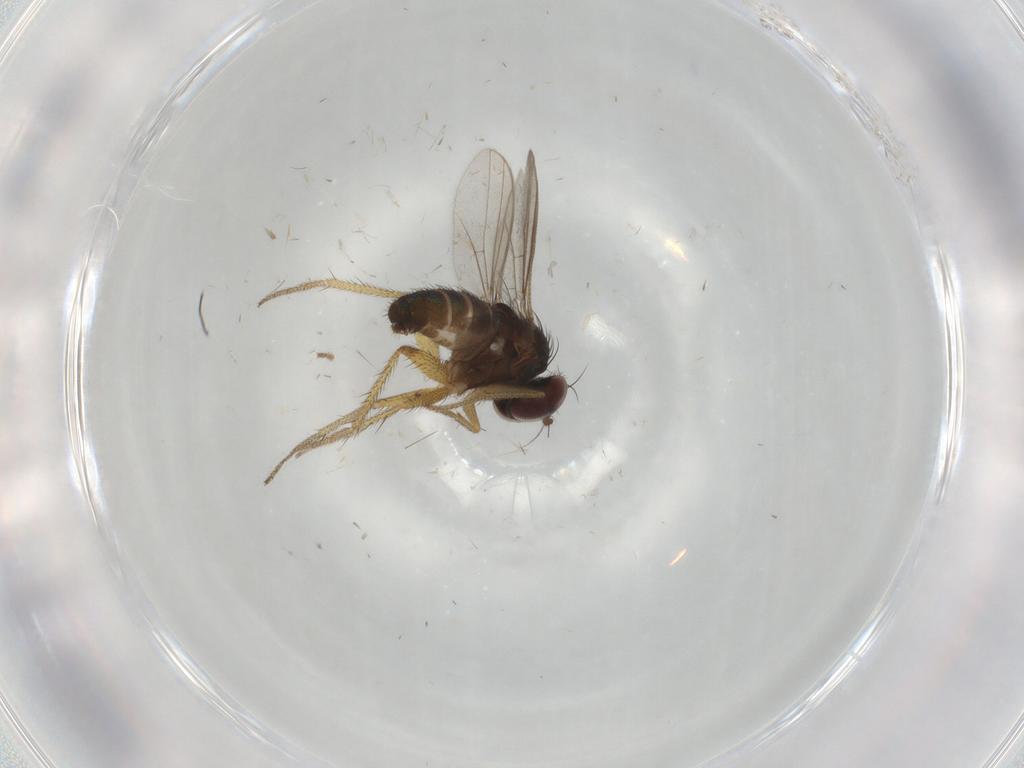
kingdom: Animalia
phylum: Arthropoda
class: Insecta
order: Diptera
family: Dolichopodidae
